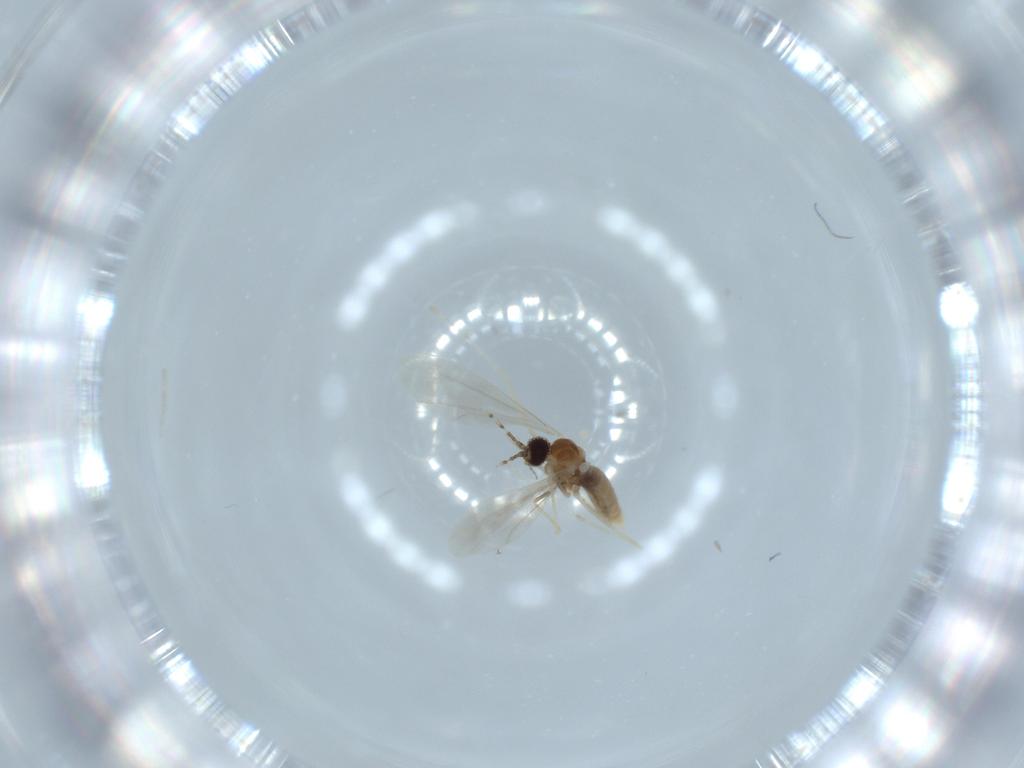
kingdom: Animalia
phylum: Arthropoda
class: Insecta
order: Diptera
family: Cecidomyiidae
